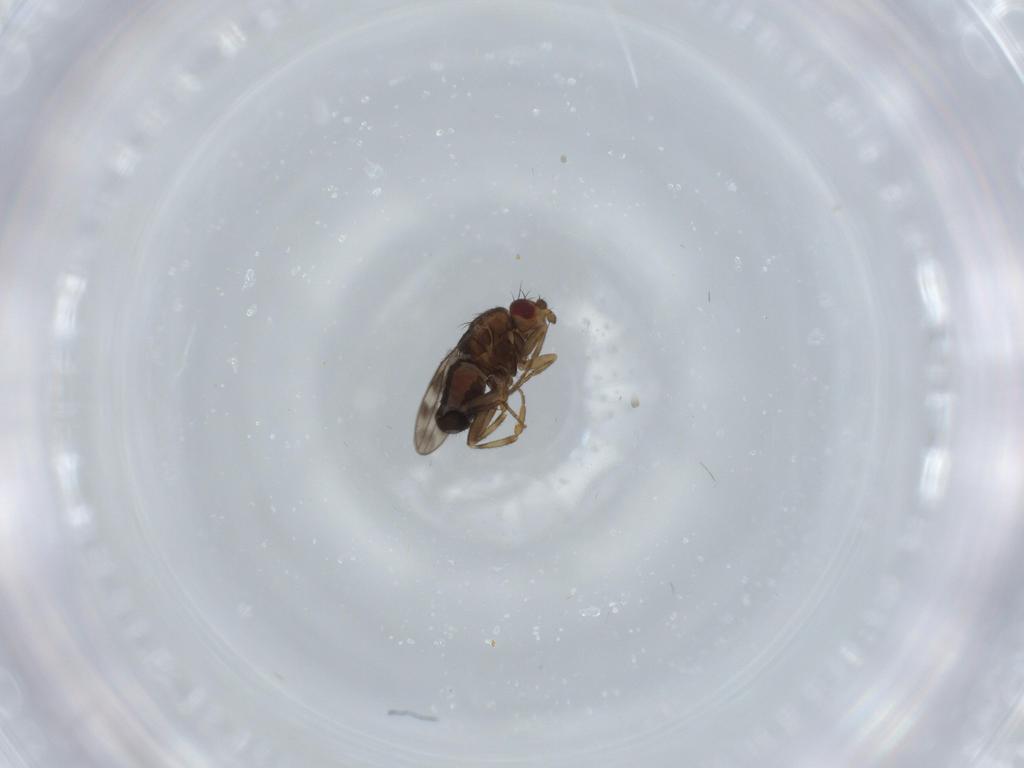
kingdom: Animalia
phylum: Arthropoda
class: Insecta
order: Diptera
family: Sphaeroceridae
